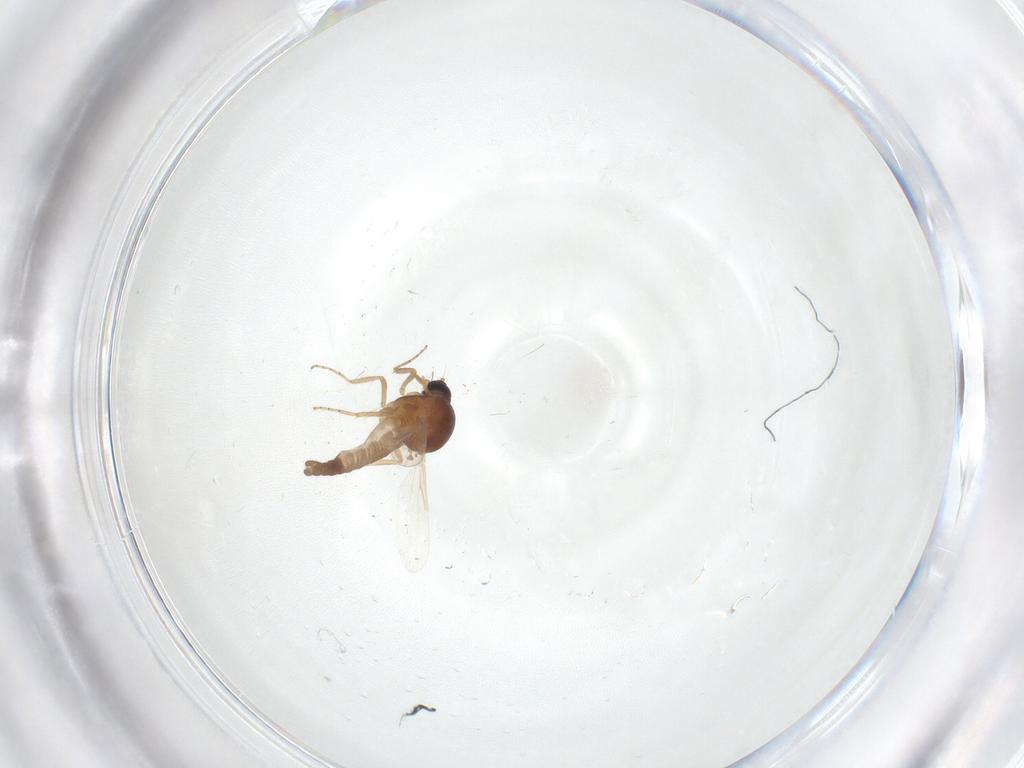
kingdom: Animalia
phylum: Arthropoda
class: Insecta
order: Diptera
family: Ceratopogonidae
